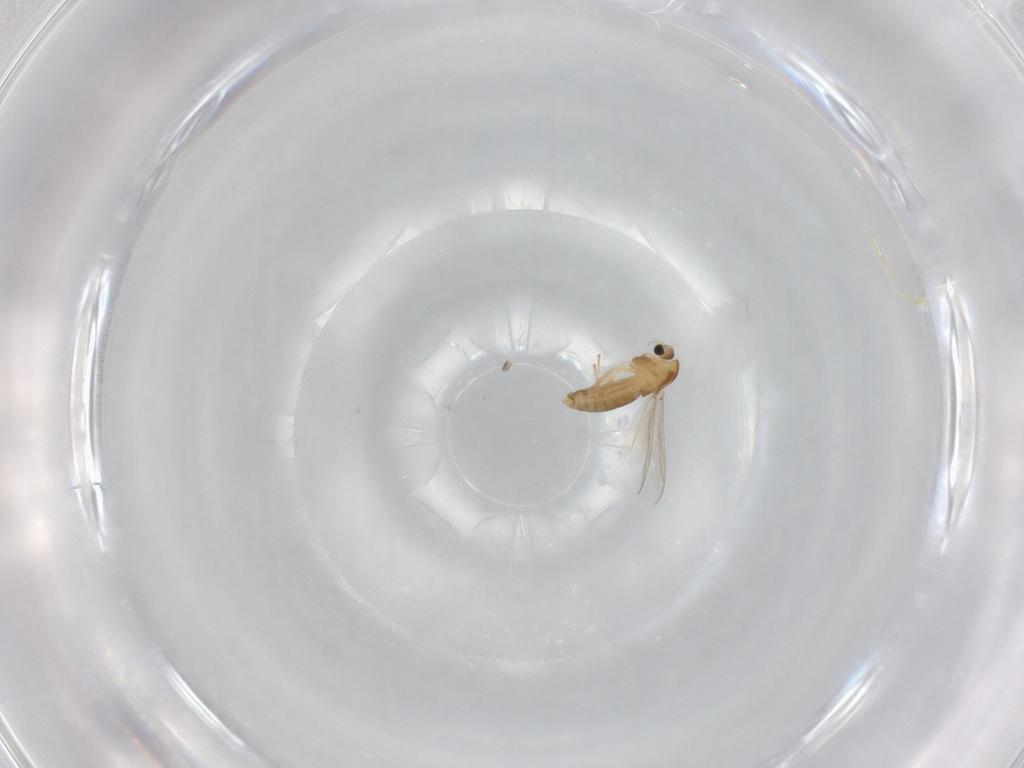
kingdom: Animalia
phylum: Arthropoda
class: Insecta
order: Diptera
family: Chironomidae
